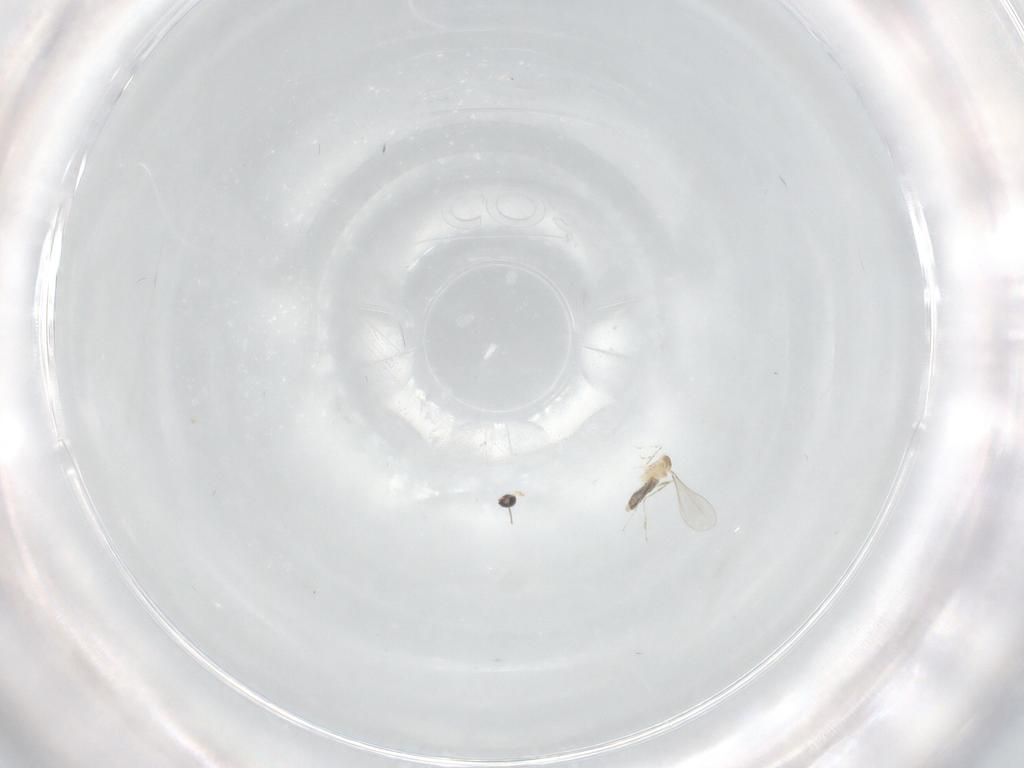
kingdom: Animalia
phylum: Arthropoda
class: Insecta
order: Diptera
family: Cecidomyiidae
